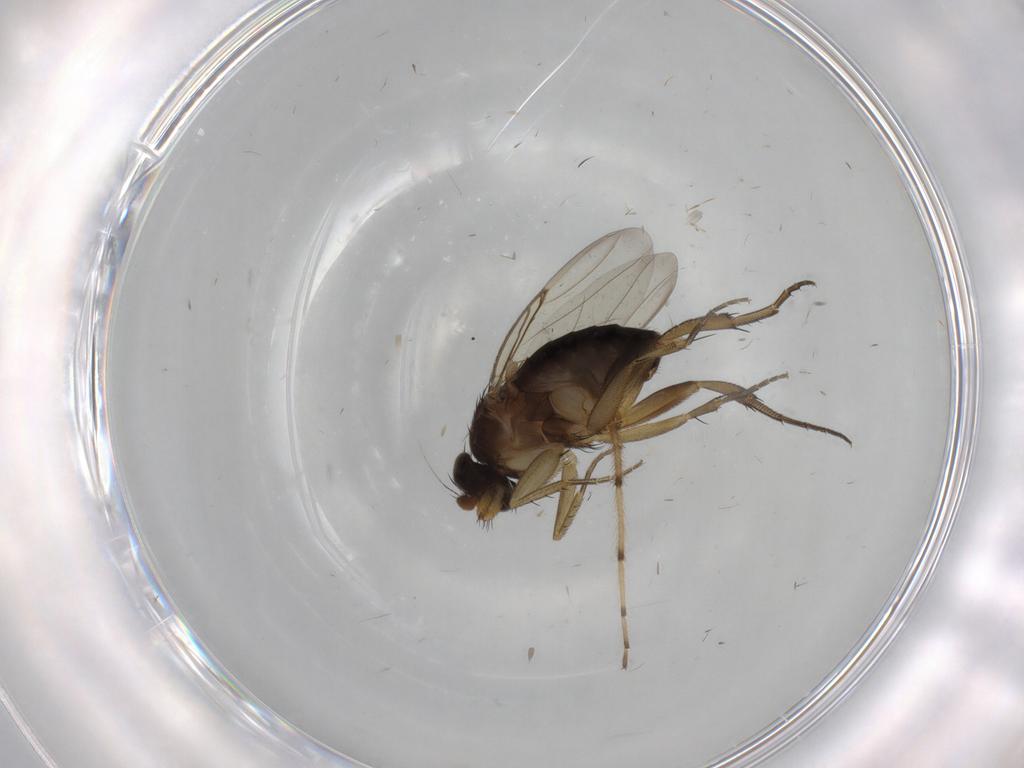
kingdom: Animalia
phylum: Arthropoda
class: Insecta
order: Diptera
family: Chironomidae
